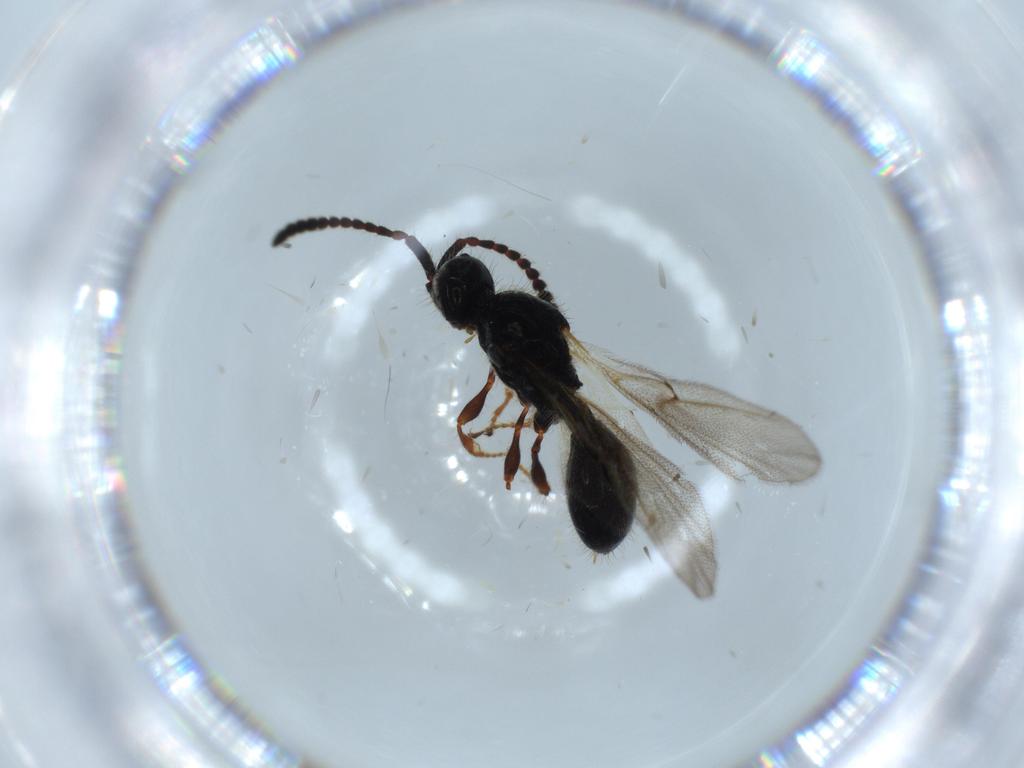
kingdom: Animalia
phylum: Arthropoda
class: Insecta
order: Hymenoptera
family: Diapriidae
